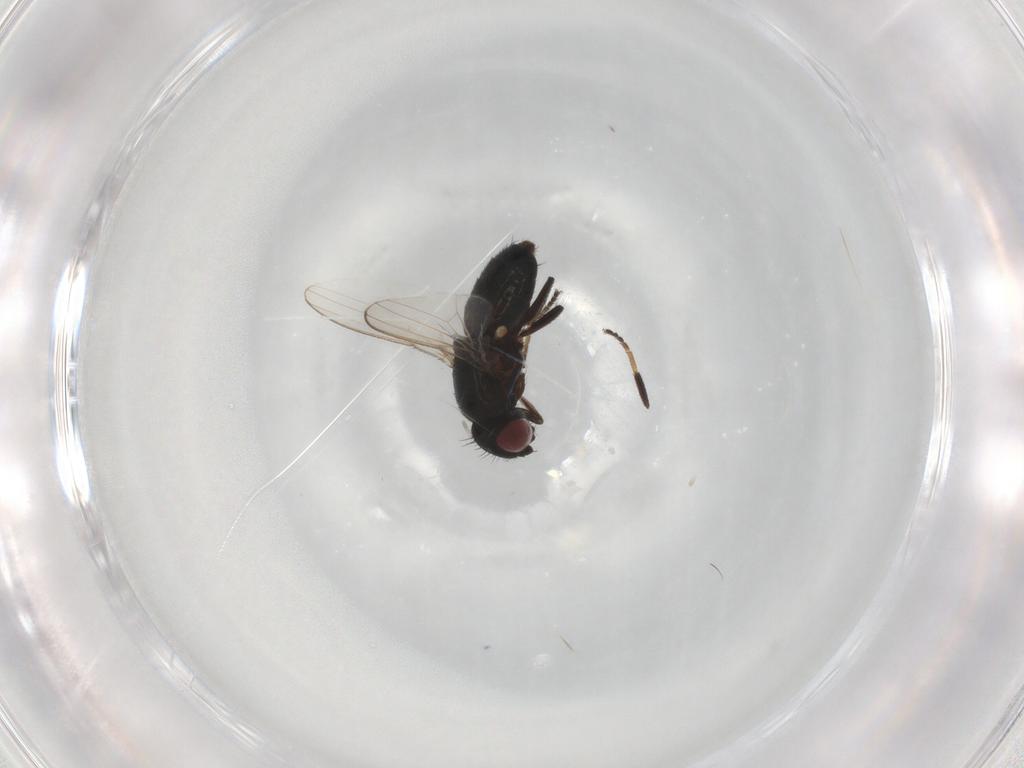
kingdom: Animalia
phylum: Arthropoda
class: Insecta
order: Diptera
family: Milichiidae
